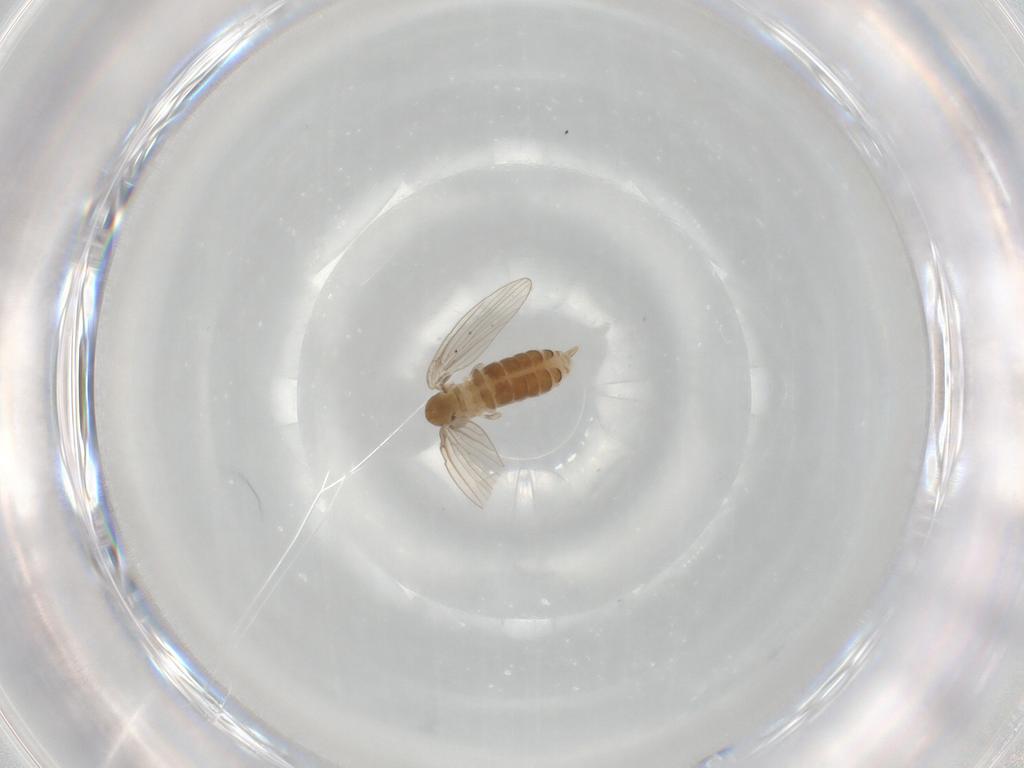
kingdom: Animalia
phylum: Arthropoda
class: Insecta
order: Diptera
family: Psychodidae
